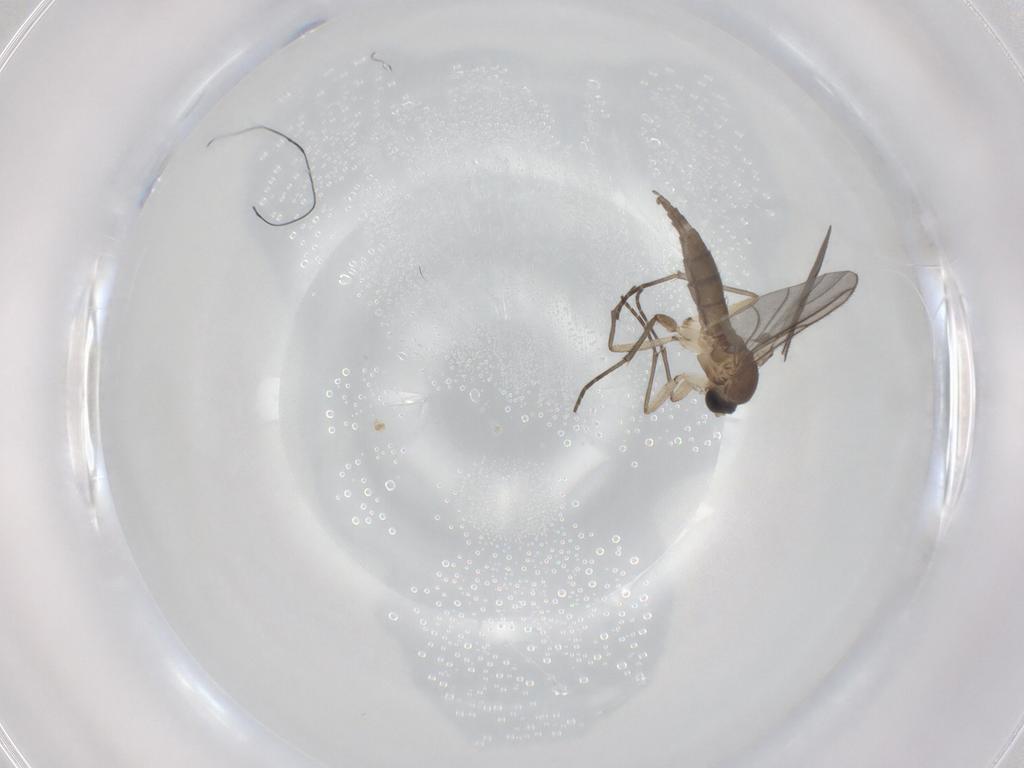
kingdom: Animalia
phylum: Arthropoda
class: Insecta
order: Diptera
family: Sciaridae
